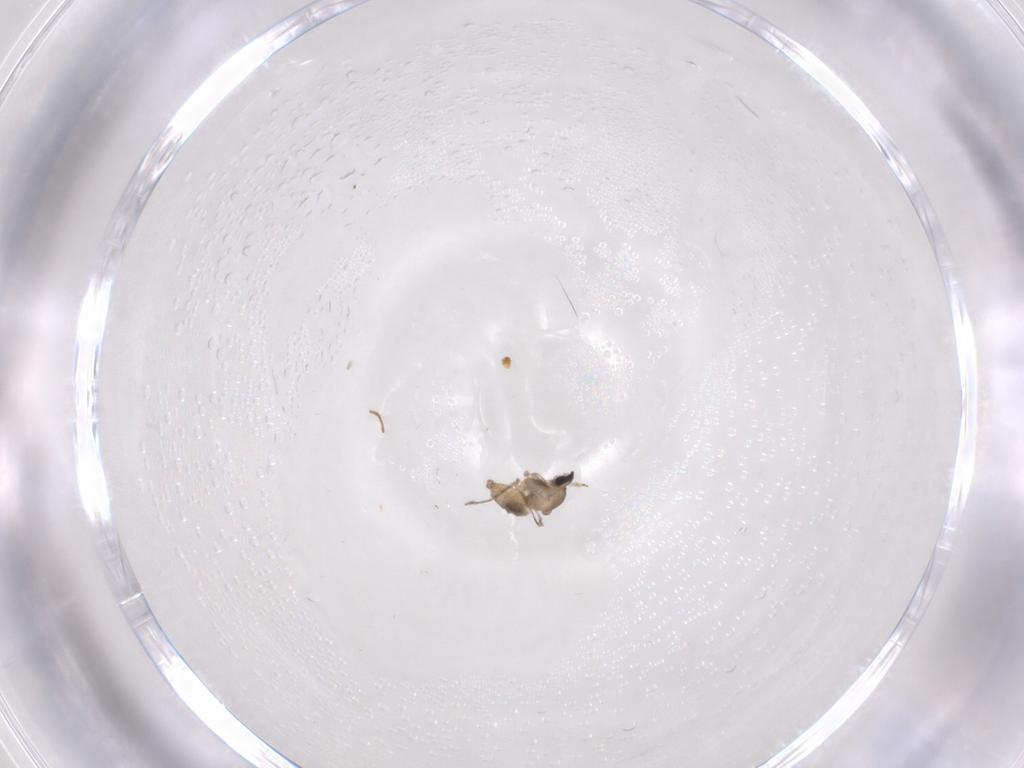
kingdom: Animalia
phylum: Arthropoda
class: Insecta
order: Diptera
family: Cecidomyiidae
